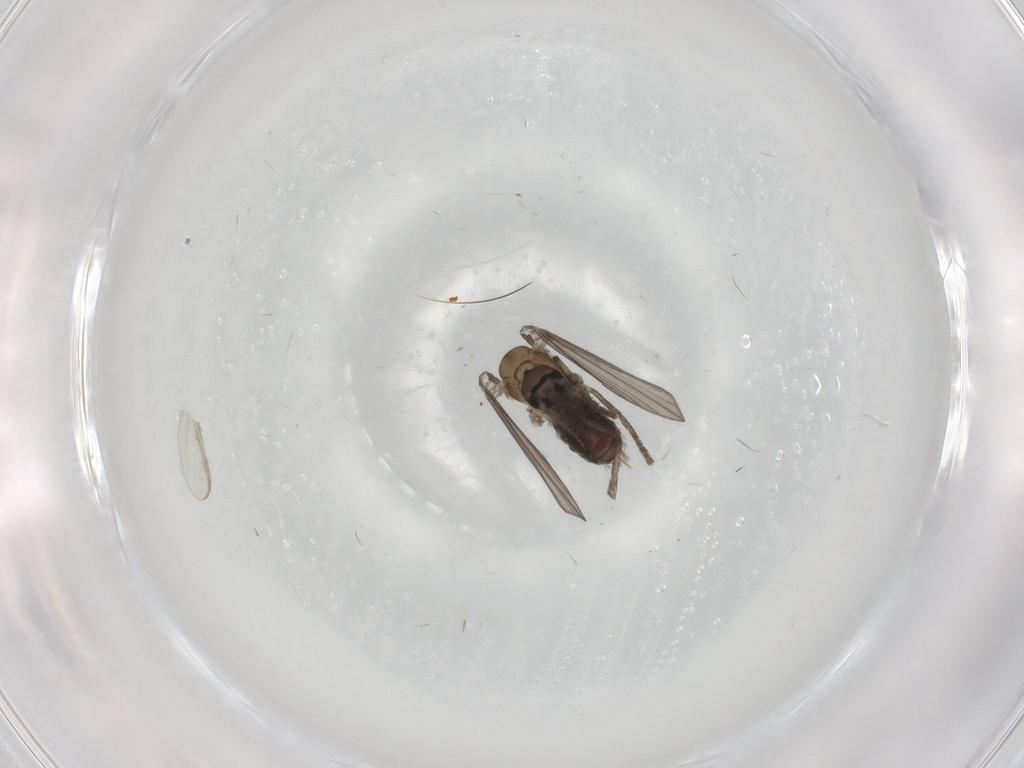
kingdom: Animalia
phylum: Arthropoda
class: Insecta
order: Diptera
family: Psychodidae
